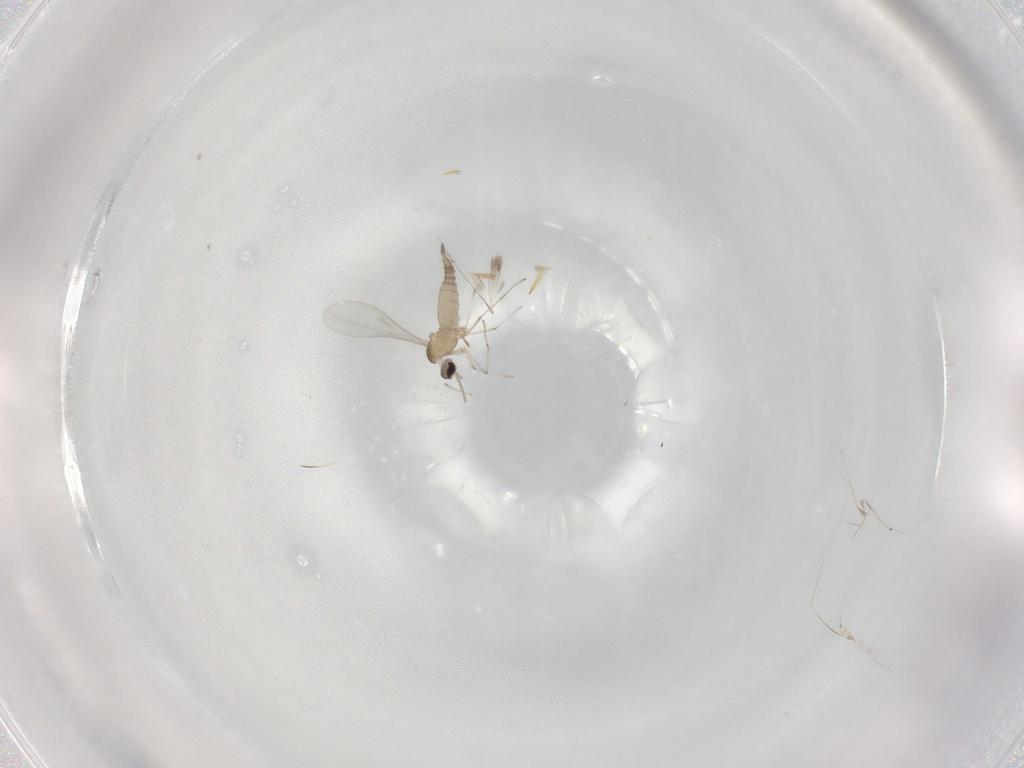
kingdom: Animalia
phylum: Arthropoda
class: Insecta
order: Diptera
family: Cecidomyiidae
